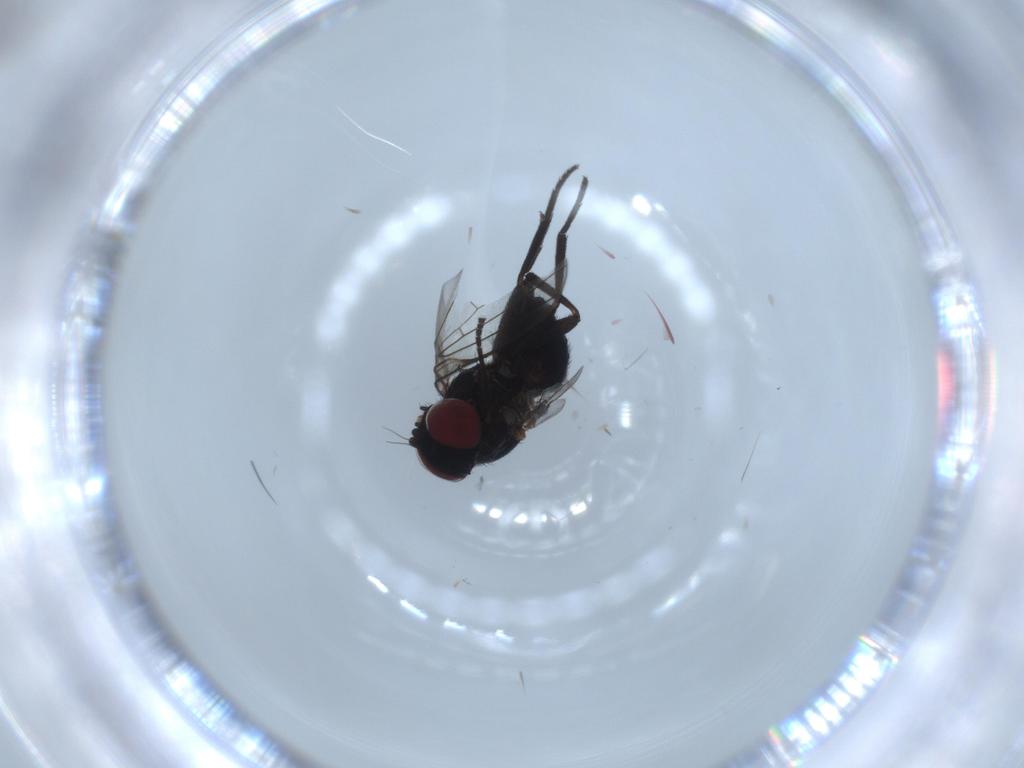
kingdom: Animalia
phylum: Arthropoda
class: Insecta
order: Diptera
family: Agromyzidae
